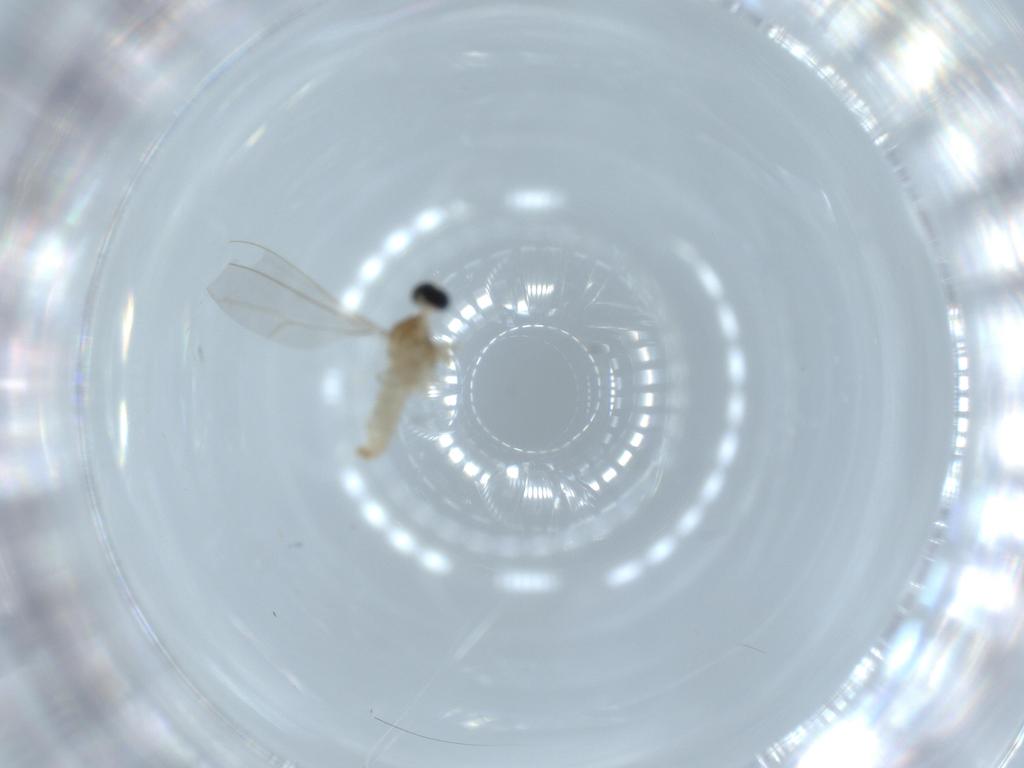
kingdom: Animalia
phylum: Arthropoda
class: Insecta
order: Diptera
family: Cecidomyiidae
